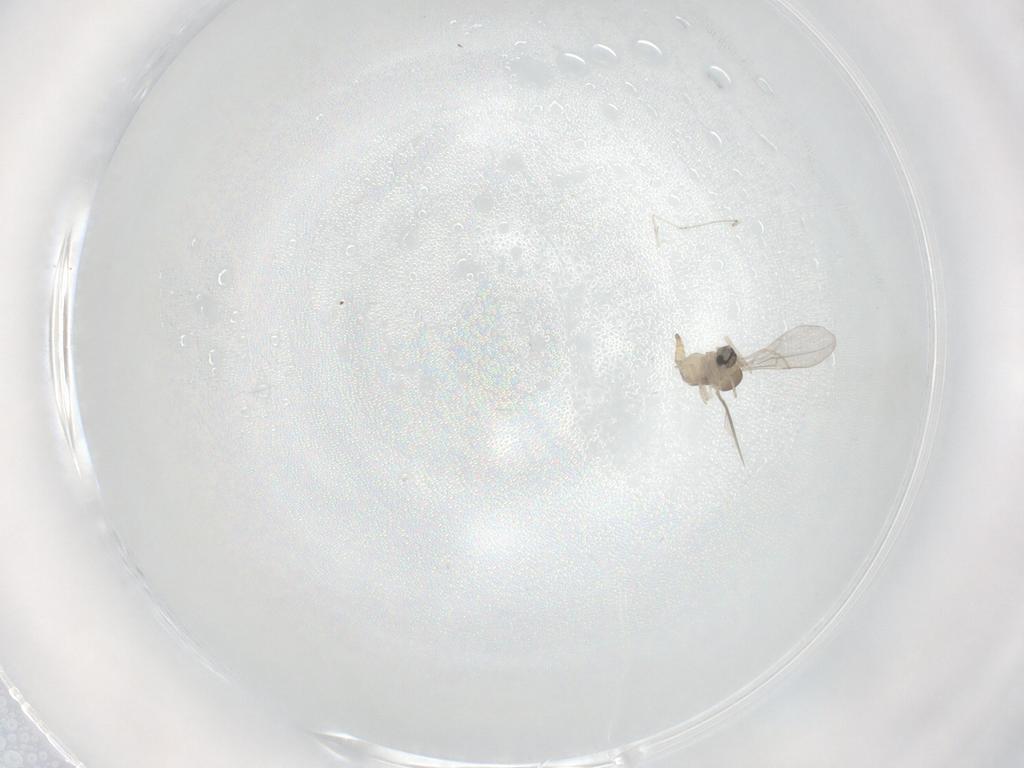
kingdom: Animalia
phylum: Arthropoda
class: Insecta
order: Diptera
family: Cecidomyiidae
